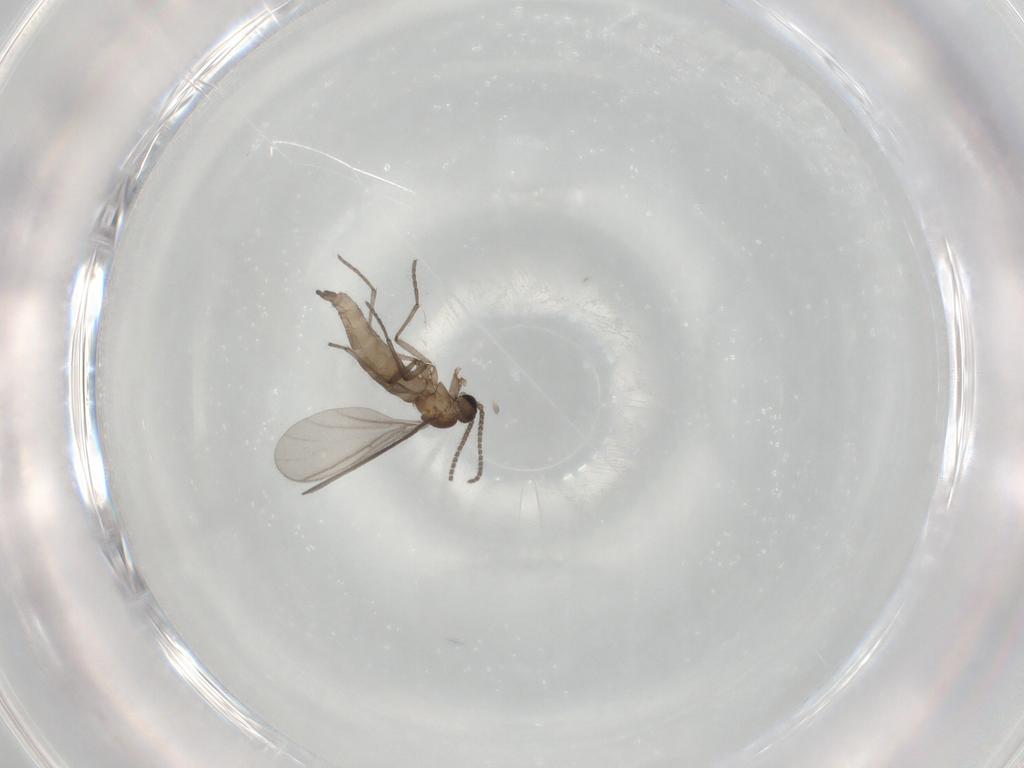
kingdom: Animalia
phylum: Arthropoda
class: Insecta
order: Diptera
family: Sciaridae
